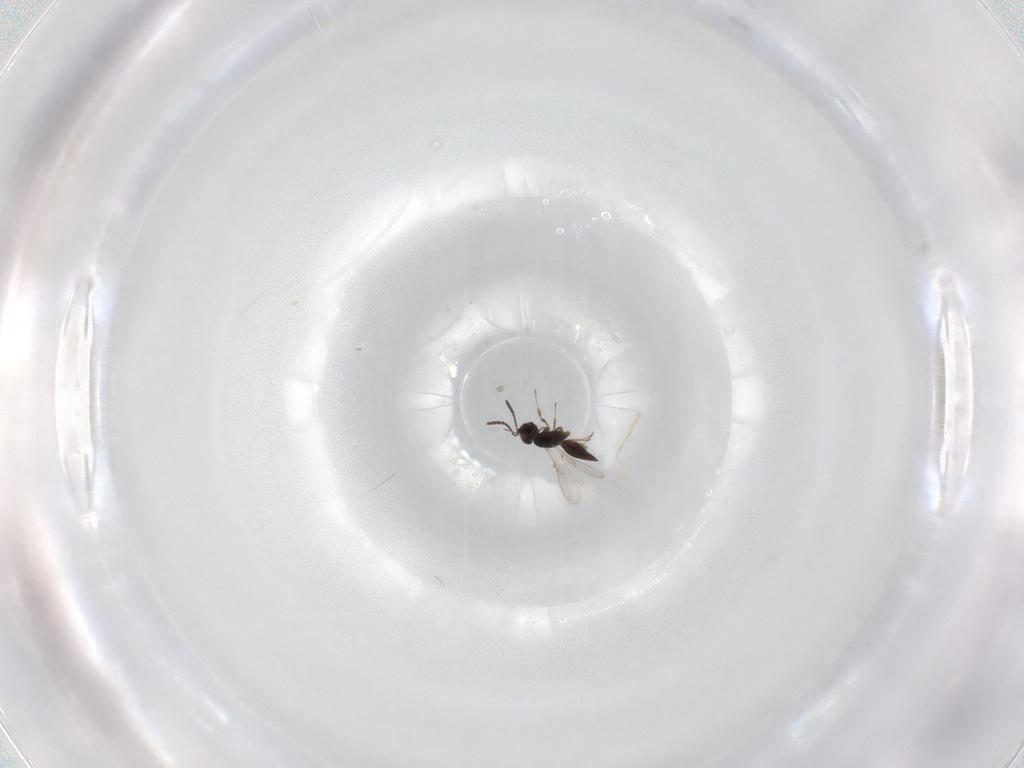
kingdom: Animalia
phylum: Arthropoda
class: Insecta
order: Hymenoptera
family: Scelionidae
